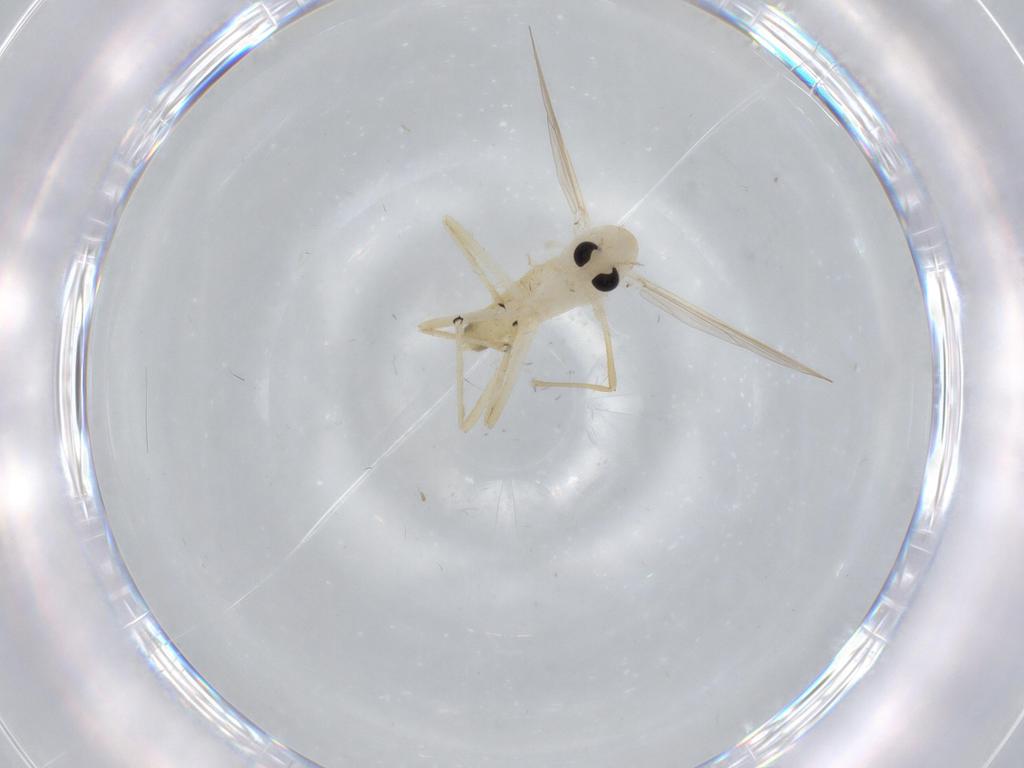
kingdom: Animalia
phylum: Arthropoda
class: Insecta
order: Diptera
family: Chironomidae
